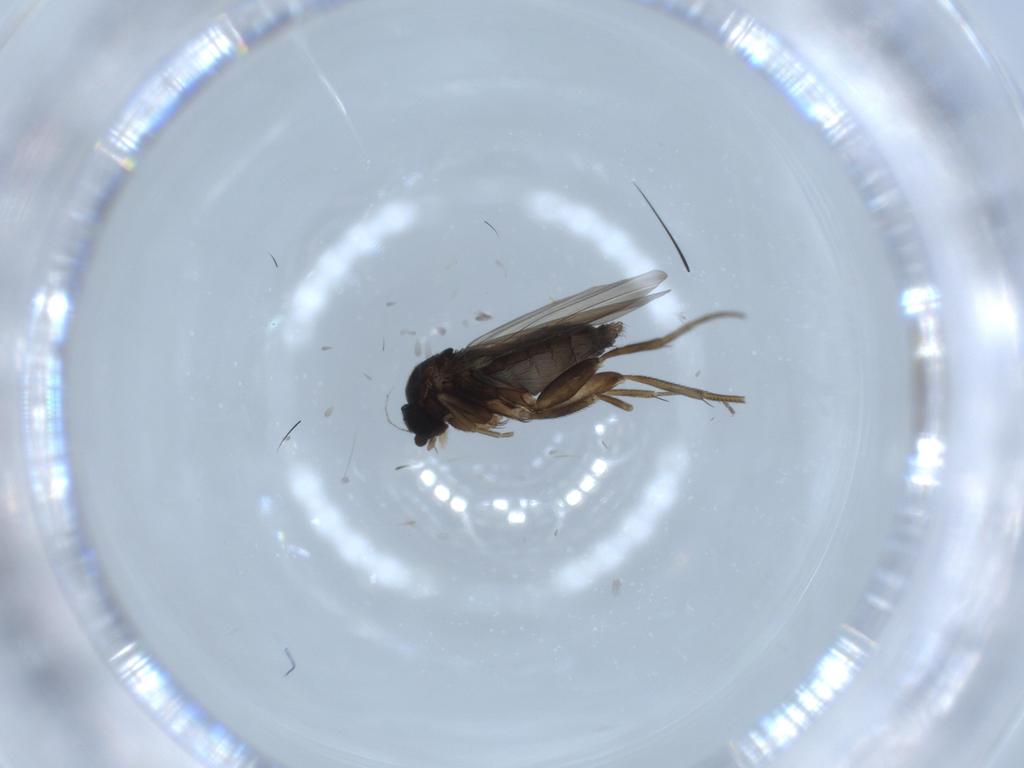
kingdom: Animalia
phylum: Arthropoda
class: Insecta
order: Diptera
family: Phoridae
